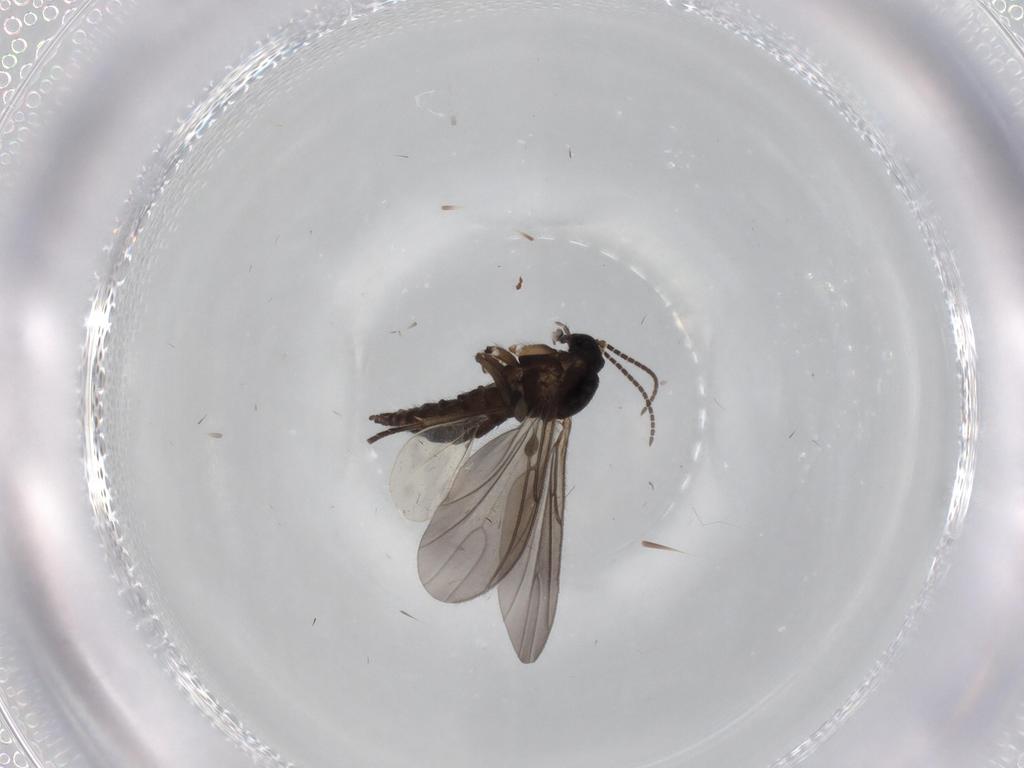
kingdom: Animalia
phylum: Arthropoda
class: Insecta
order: Diptera
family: Sciaridae
